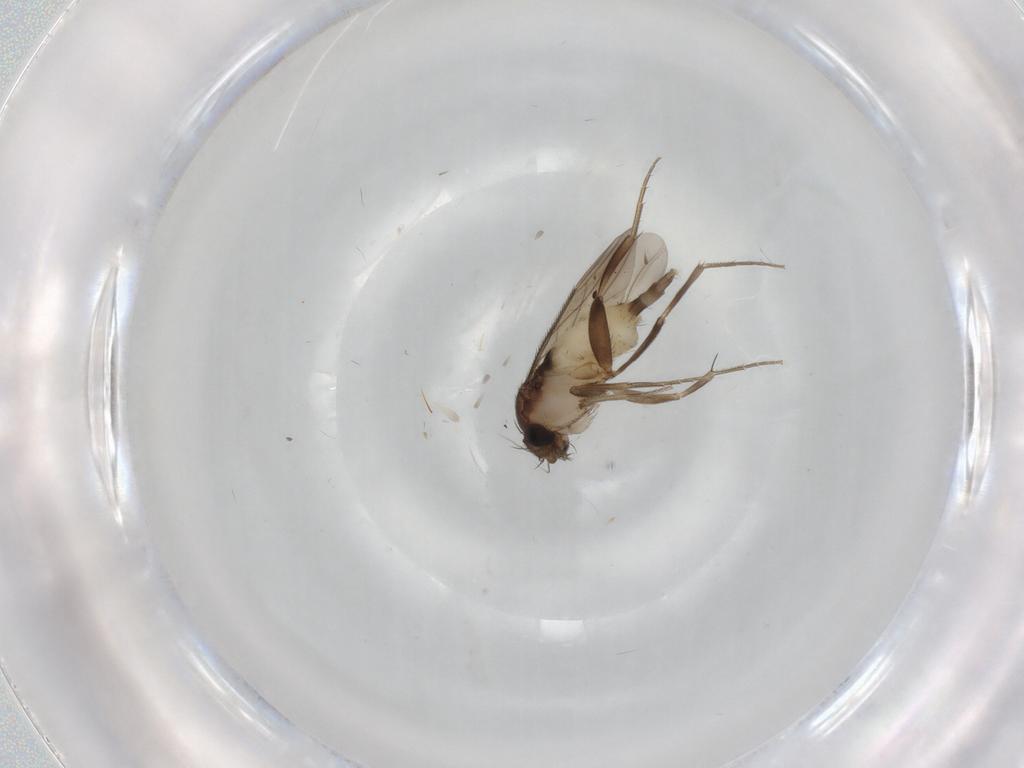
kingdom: Animalia
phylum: Arthropoda
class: Insecta
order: Diptera
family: Phoridae
